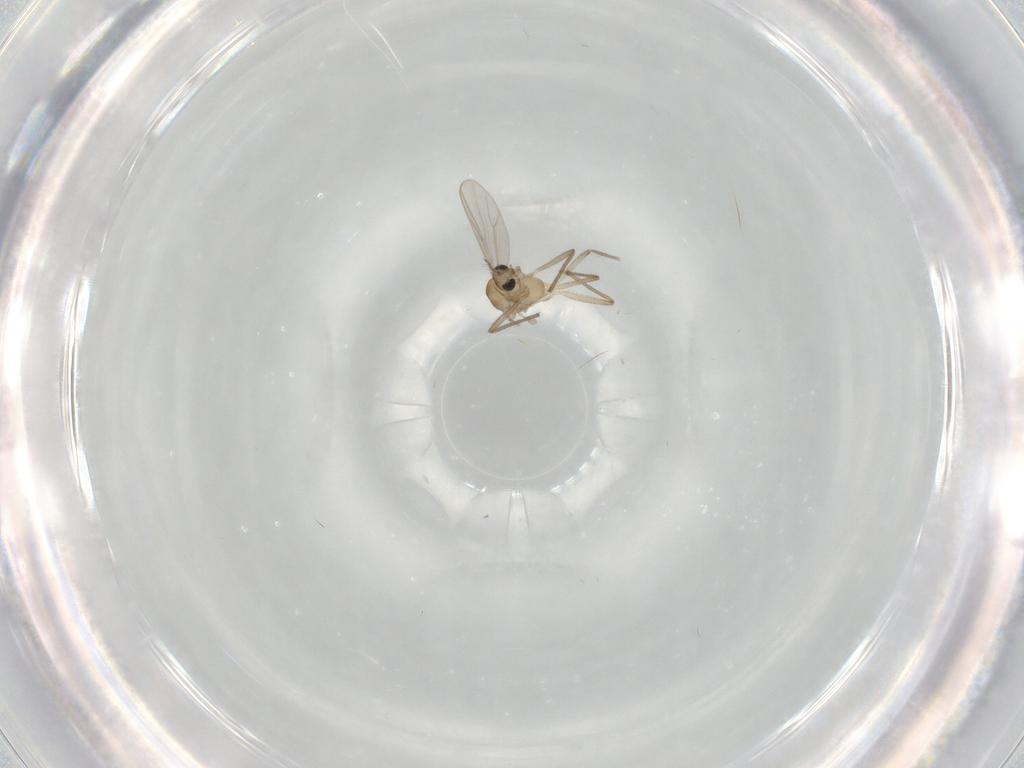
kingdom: Animalia
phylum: Arthropoda
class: Insecta
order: Diptera
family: Chironomidae
